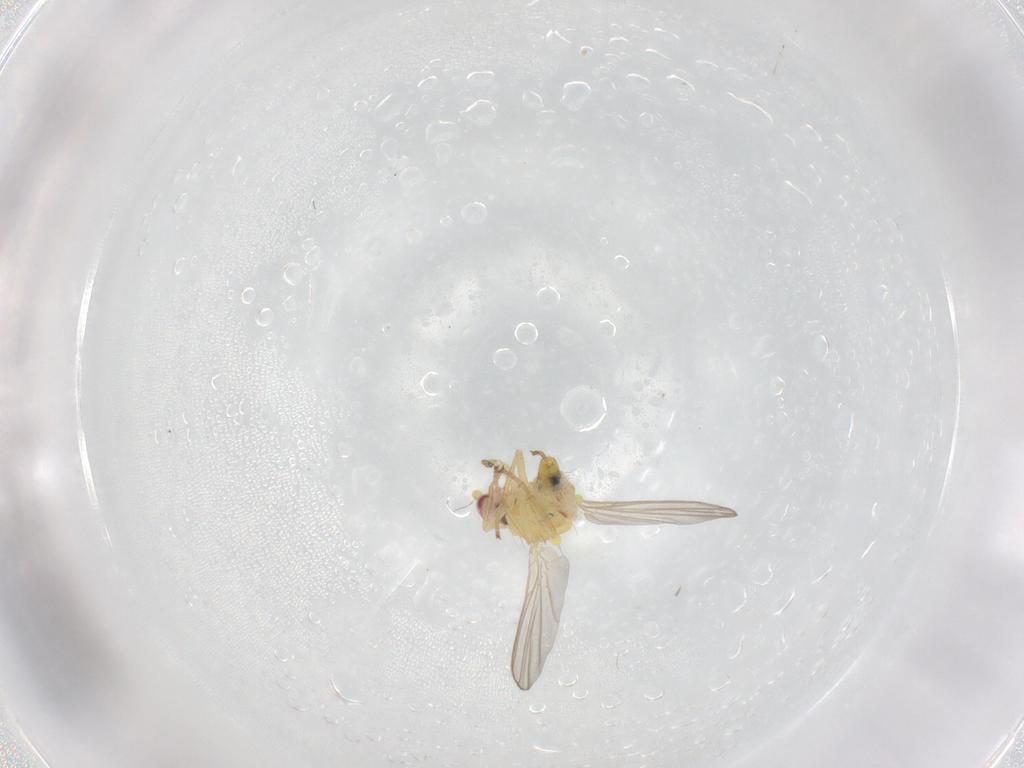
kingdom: Animalia
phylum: Arthropoda
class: Insecta
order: Diptera
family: Agromyzidae
